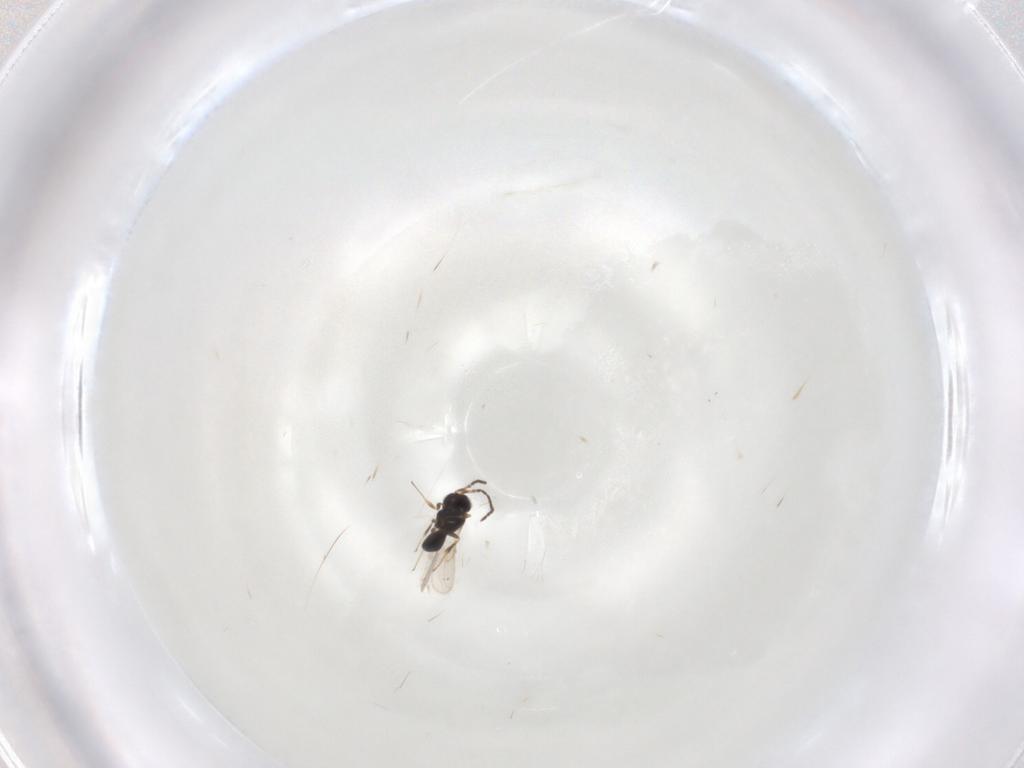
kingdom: Animalia
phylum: Arthropoda
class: Insecta
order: Hymenoptera
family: Scelionidae
